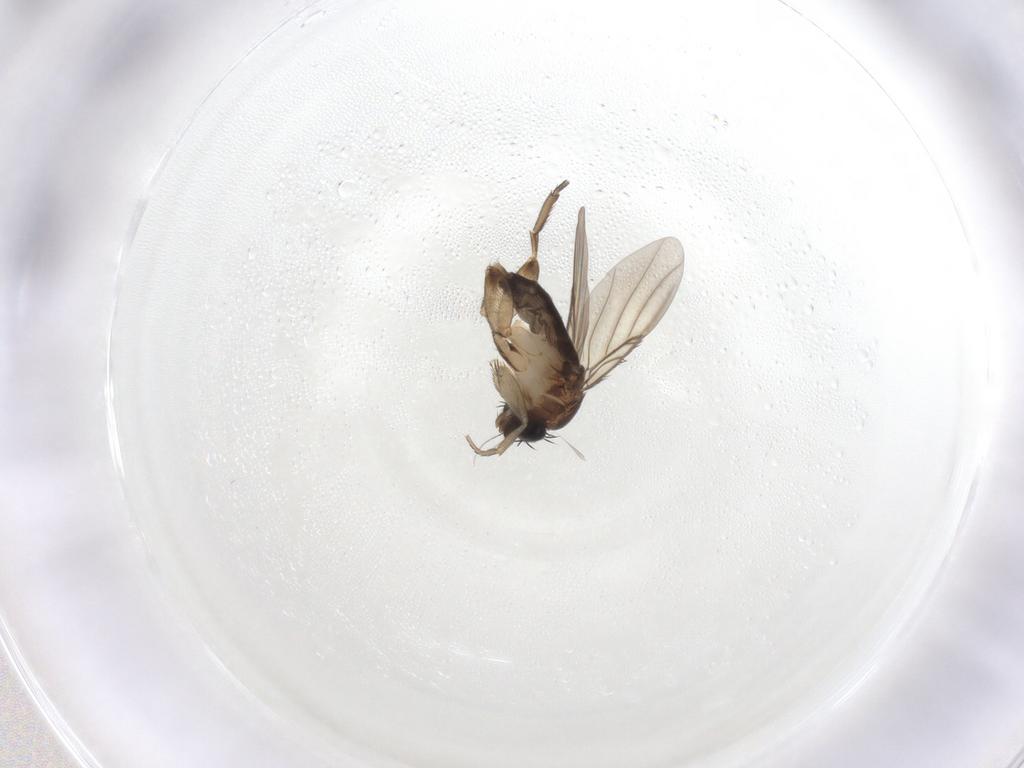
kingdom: Animalia
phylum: Arthropoda
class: Insecta
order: Diptera
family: Phoridae
